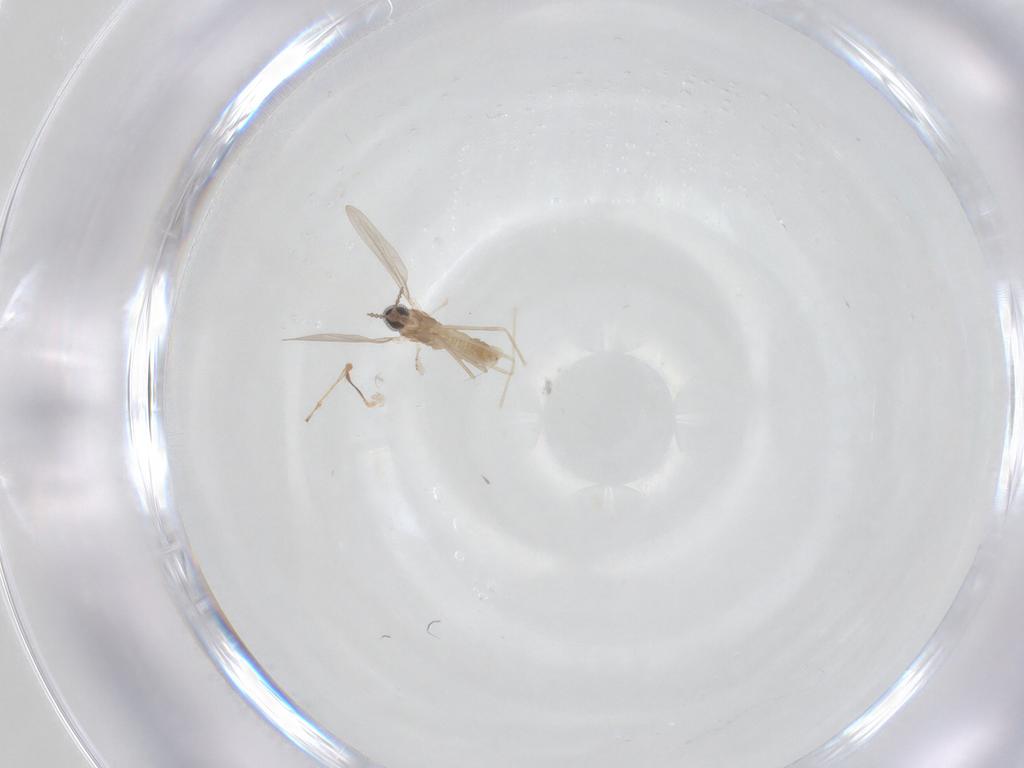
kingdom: Animalia
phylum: Arthropoda
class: Insecta
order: Diptera
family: Cecidomyiidae
